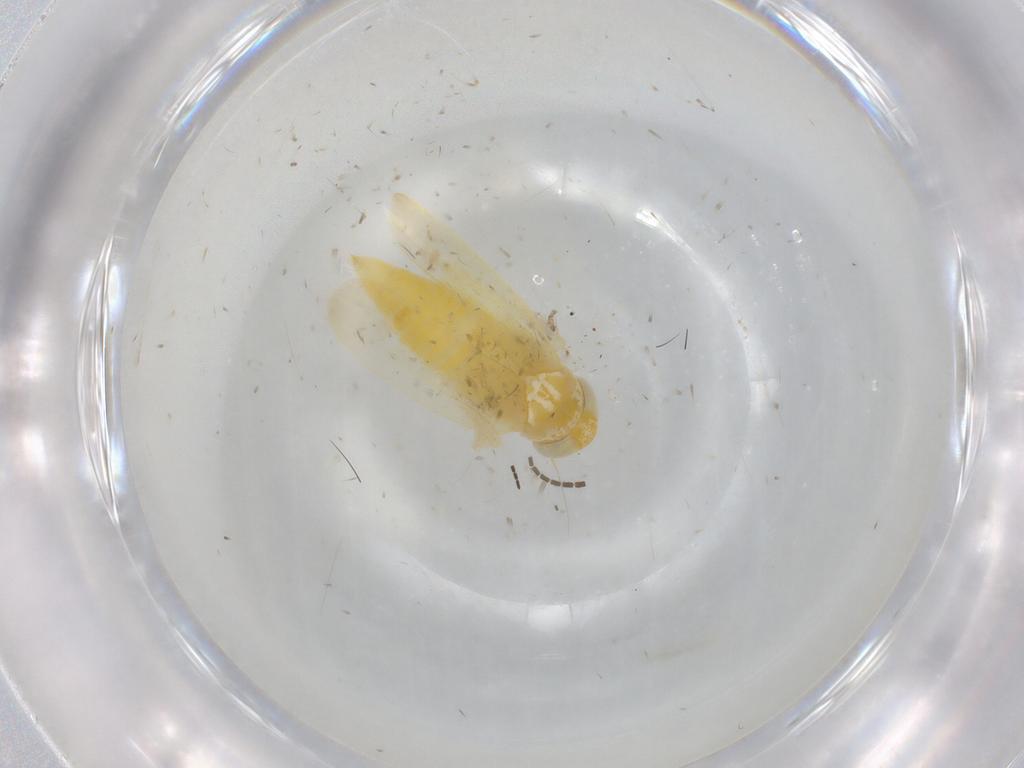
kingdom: Animalia
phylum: Arthropoda
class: Insecta
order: Hemiptera
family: Cicadellidae
